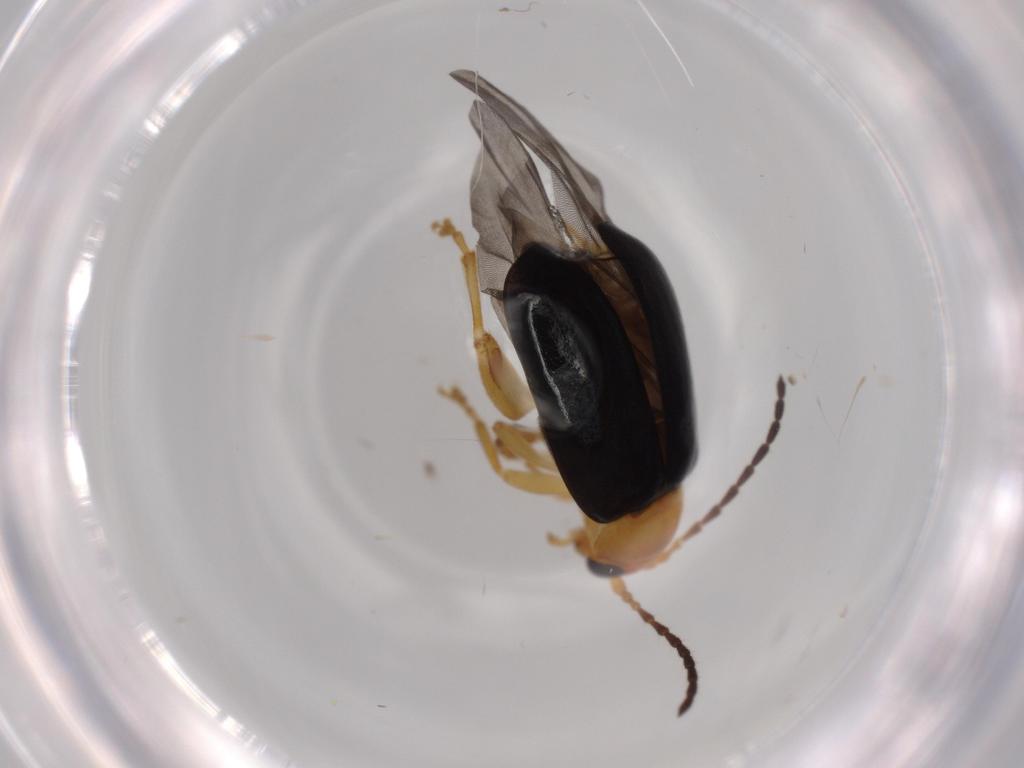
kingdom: Animalia
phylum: Arthropoda
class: Insecta
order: Coleoptera
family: Chrysomelidae
